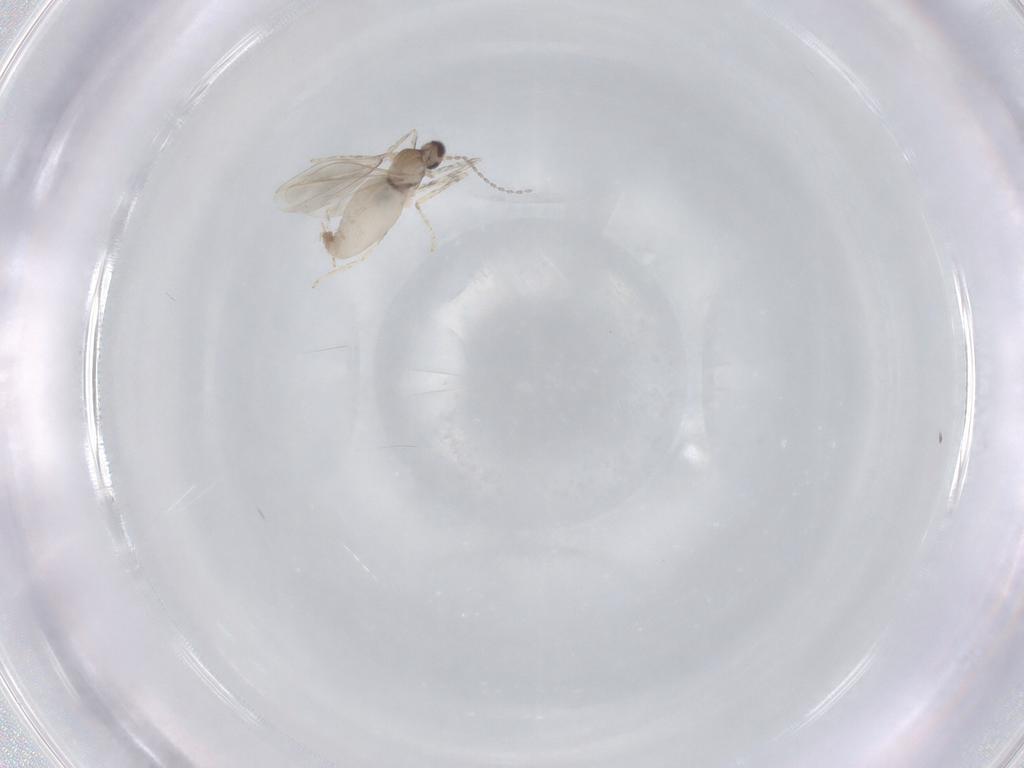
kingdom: Animalia
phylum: Arthropoda
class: Insecta
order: Diptera
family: Cecidomyiidae
